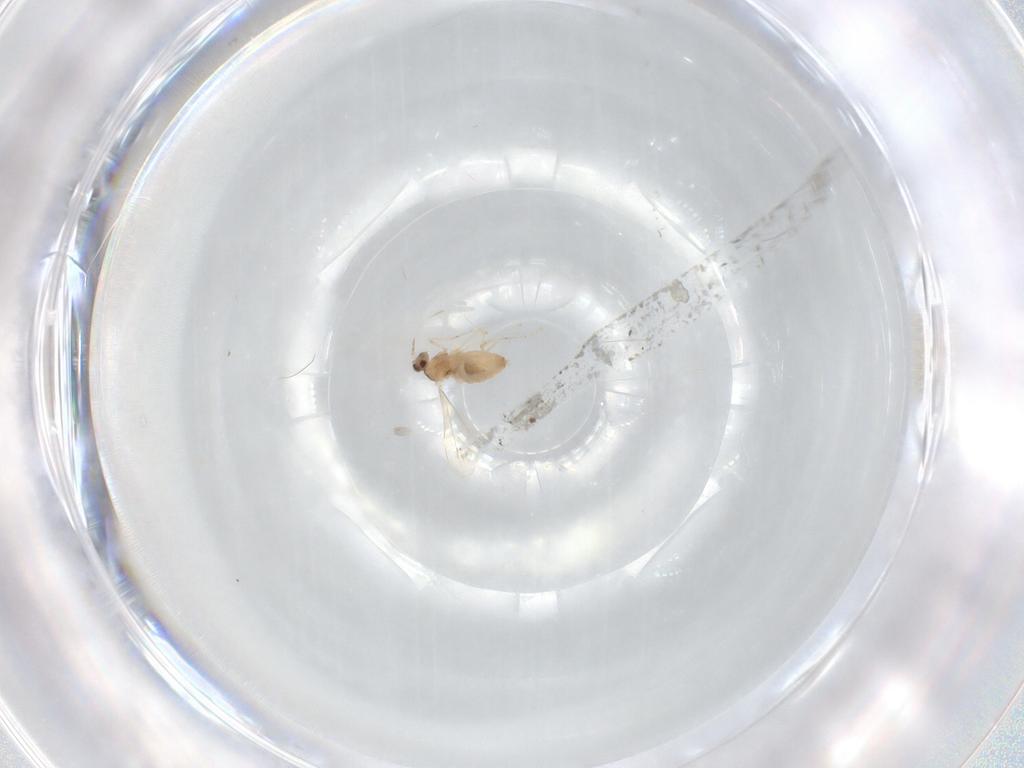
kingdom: Animalia
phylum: Arthropoda
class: Insecta
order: Diptera
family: Cecidomyiidae
